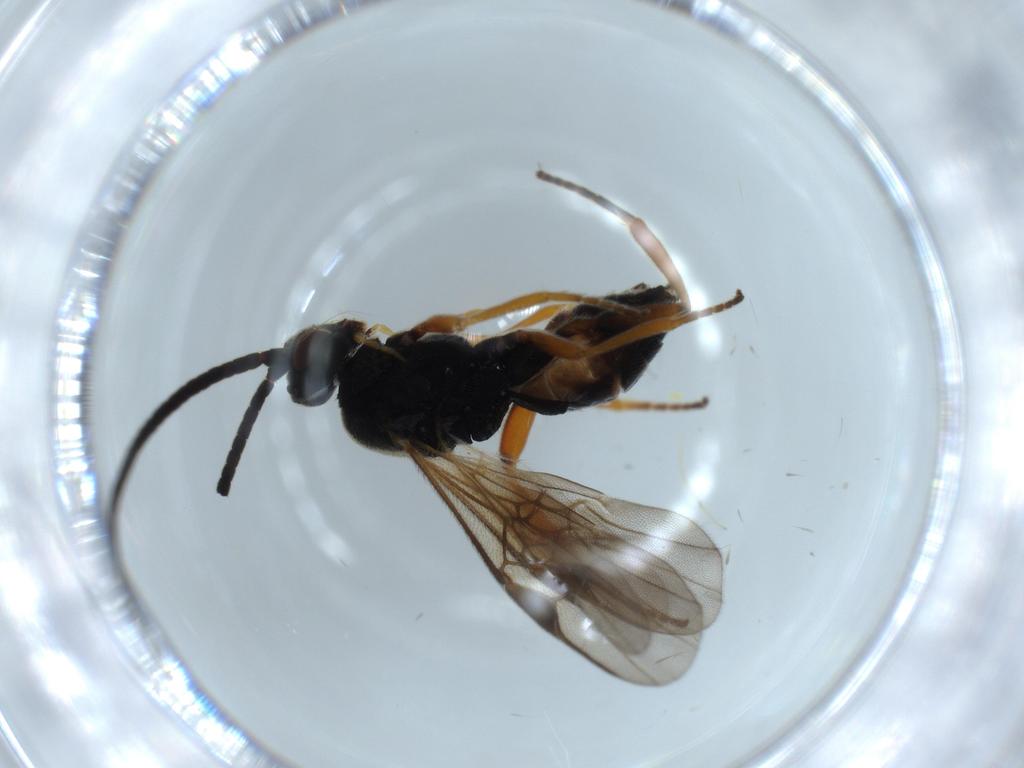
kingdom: Animalia
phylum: Arthropoda
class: Insecta
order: Hymenoptera
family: Braconidae
